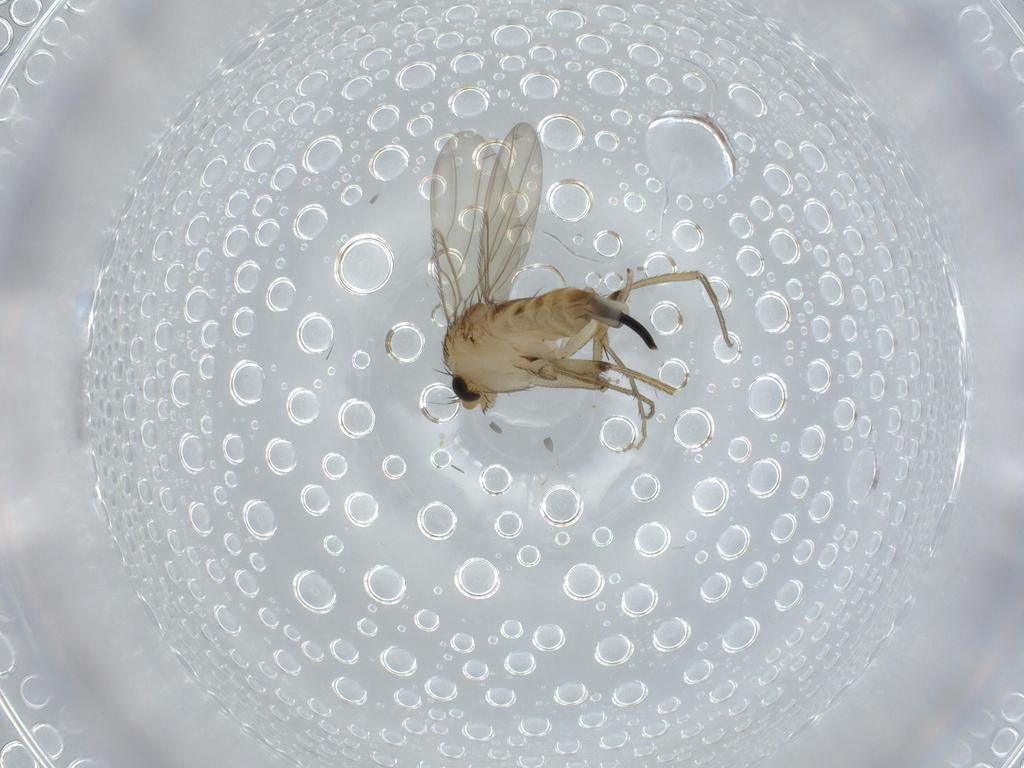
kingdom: Animalia
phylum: Arthropoda
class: Insecta
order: Diptera
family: Phoridae
